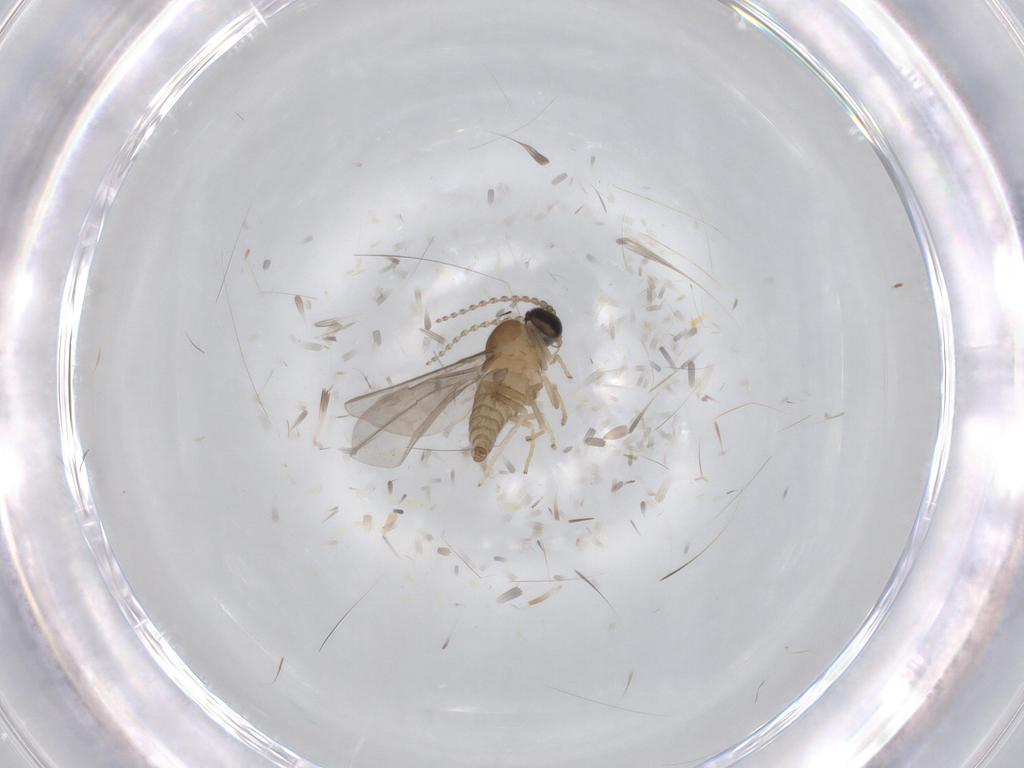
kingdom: Animalia
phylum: Arthropoda
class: Insecta
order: Diptera
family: Cecidomyiidae
